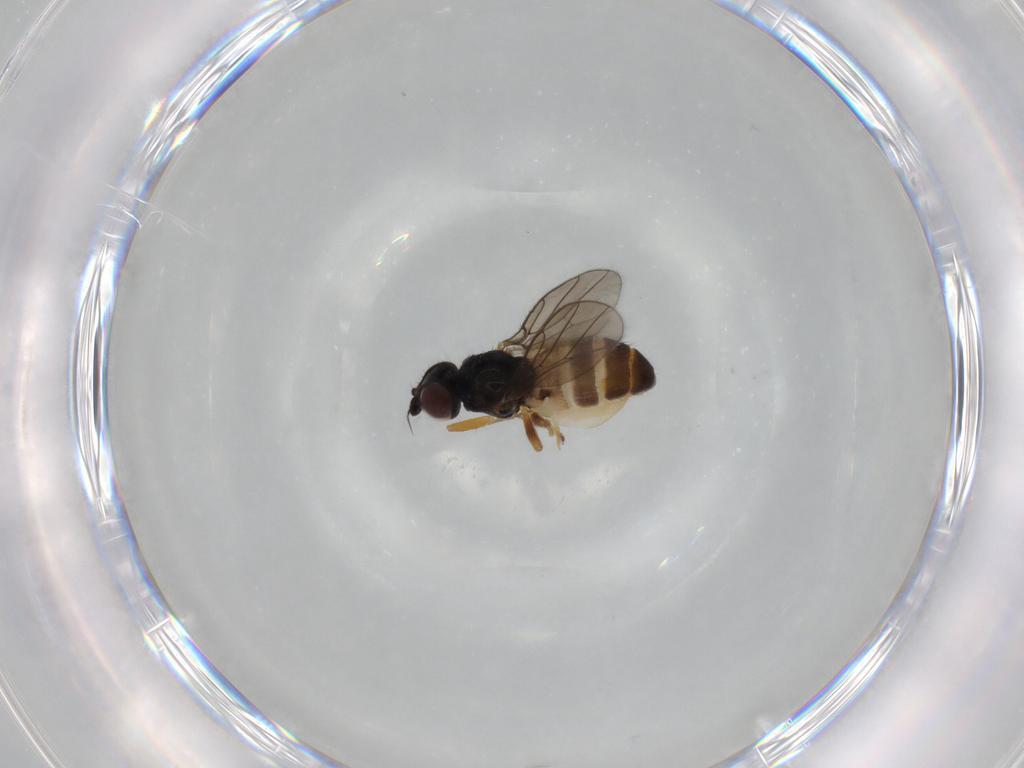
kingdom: Animalia
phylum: Arthropoda
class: Insecta
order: Diptera
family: Chloropidae
